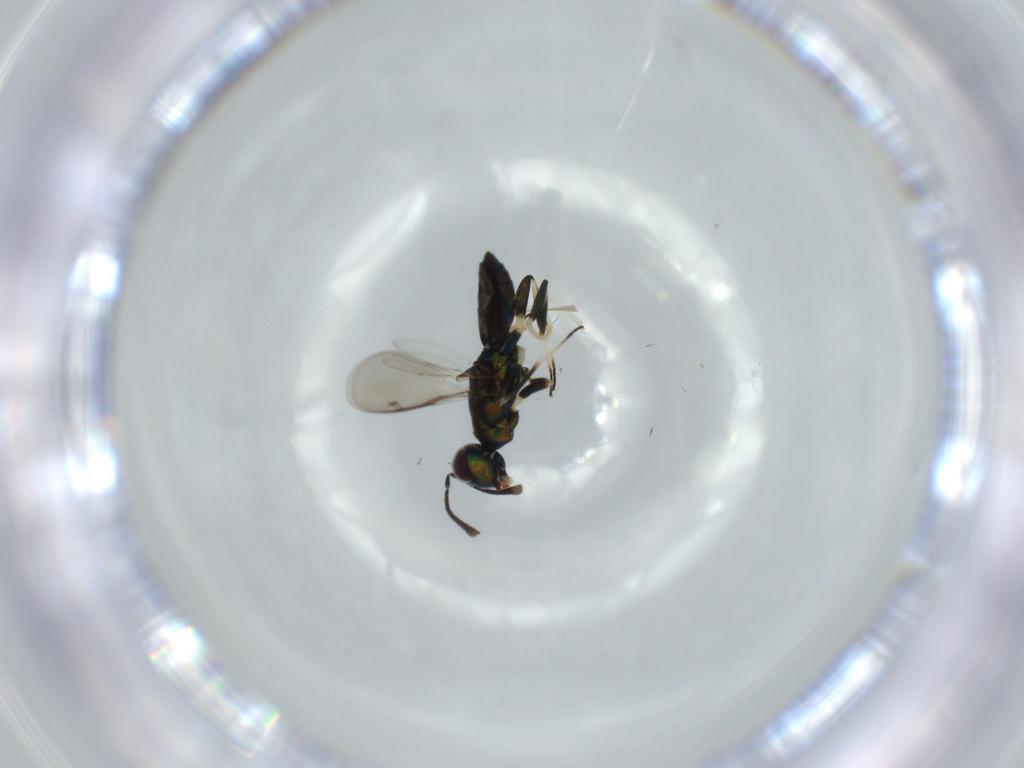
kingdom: Animalia
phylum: Arthropoda
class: Insecta
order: Hymenoptera
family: Eupelmidae
